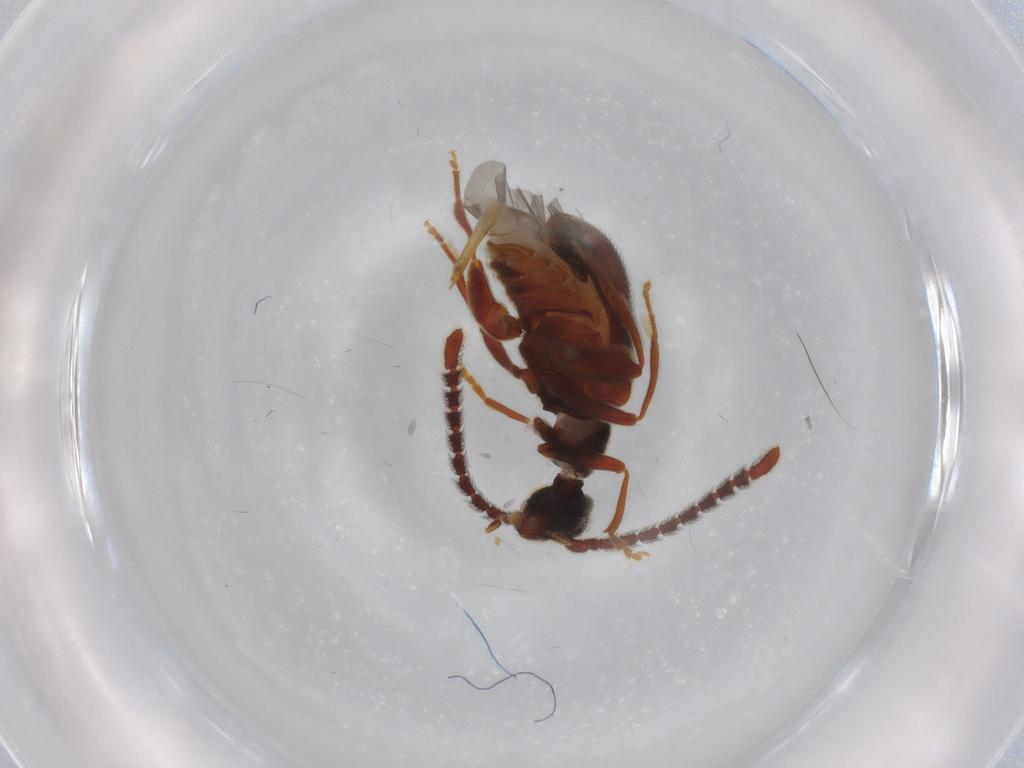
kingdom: Animalia
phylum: Arthropoda
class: Insecta
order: Coleoptera
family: Aderidae
